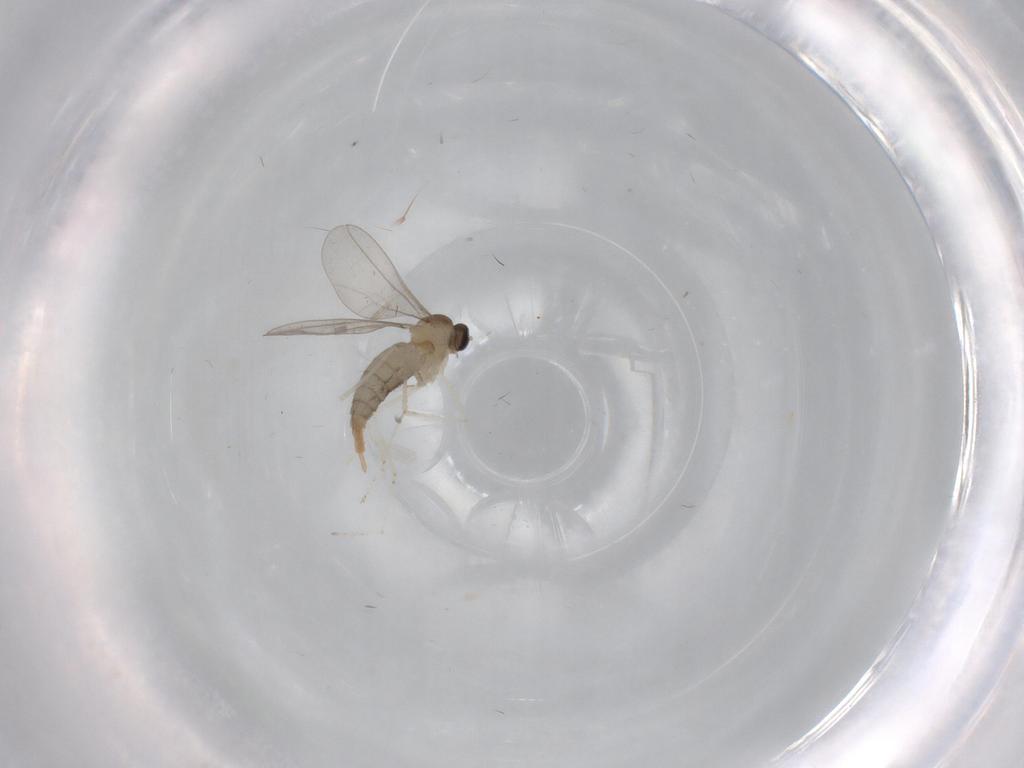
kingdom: Animalia
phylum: Arthropoda
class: Insecta
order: Diptera
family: Cecidomyiidae
